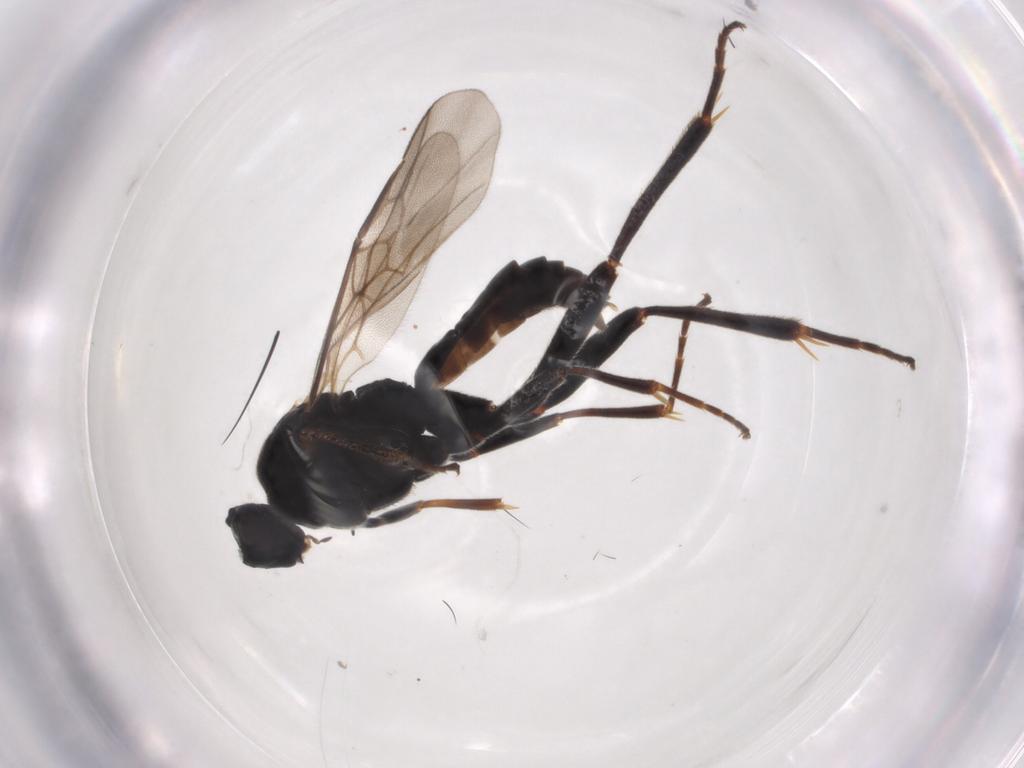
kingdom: Animalia
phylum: Arthropoda
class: Insecta
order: Hymenoptera
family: Braconidae
